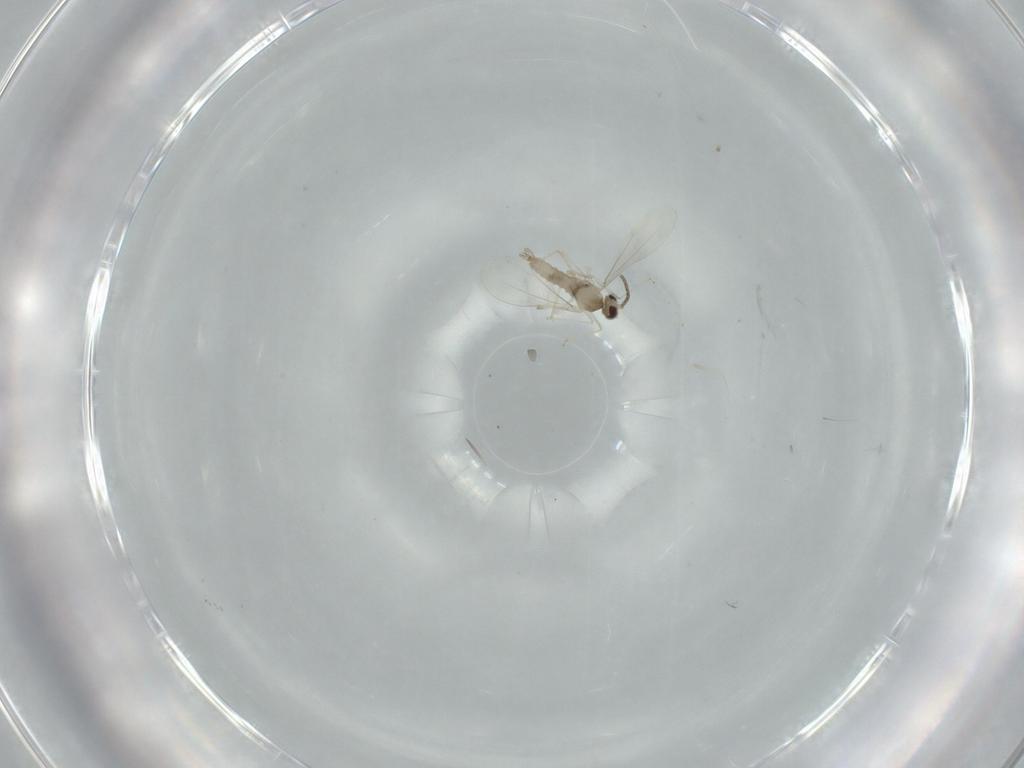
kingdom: Animalia
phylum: Arthropoda
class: Insecta
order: Diptera
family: Cecidomyiidae
